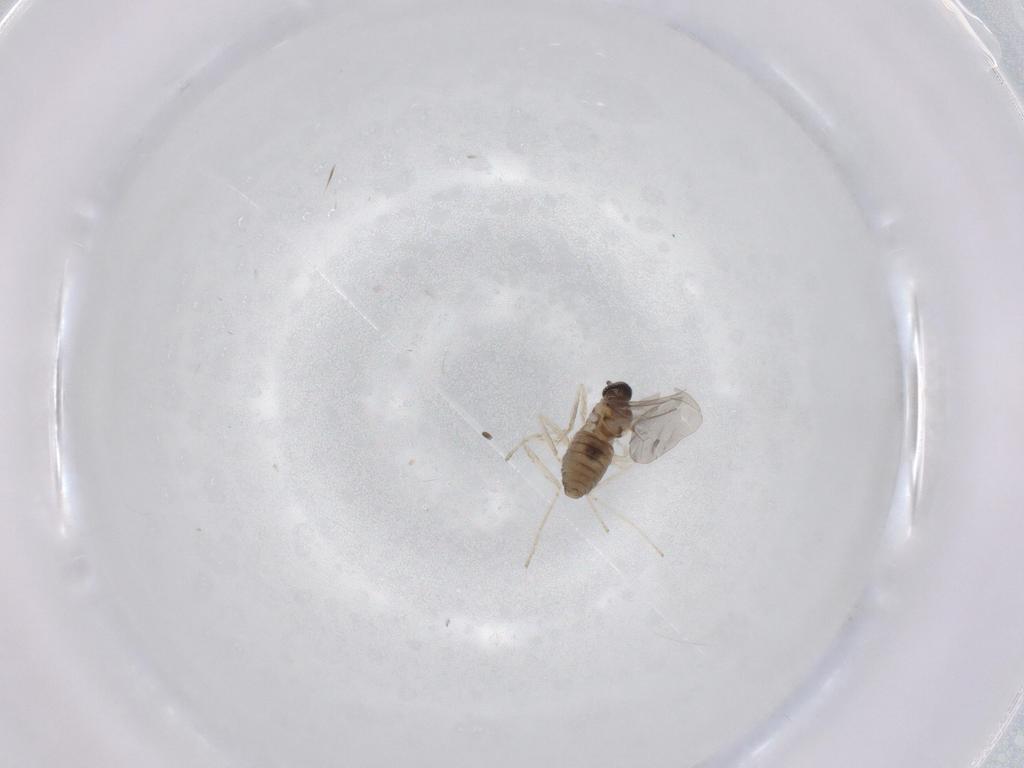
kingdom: Animalia
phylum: Arthropoda
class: Insecta
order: Diptera
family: Cecidomyiidae
